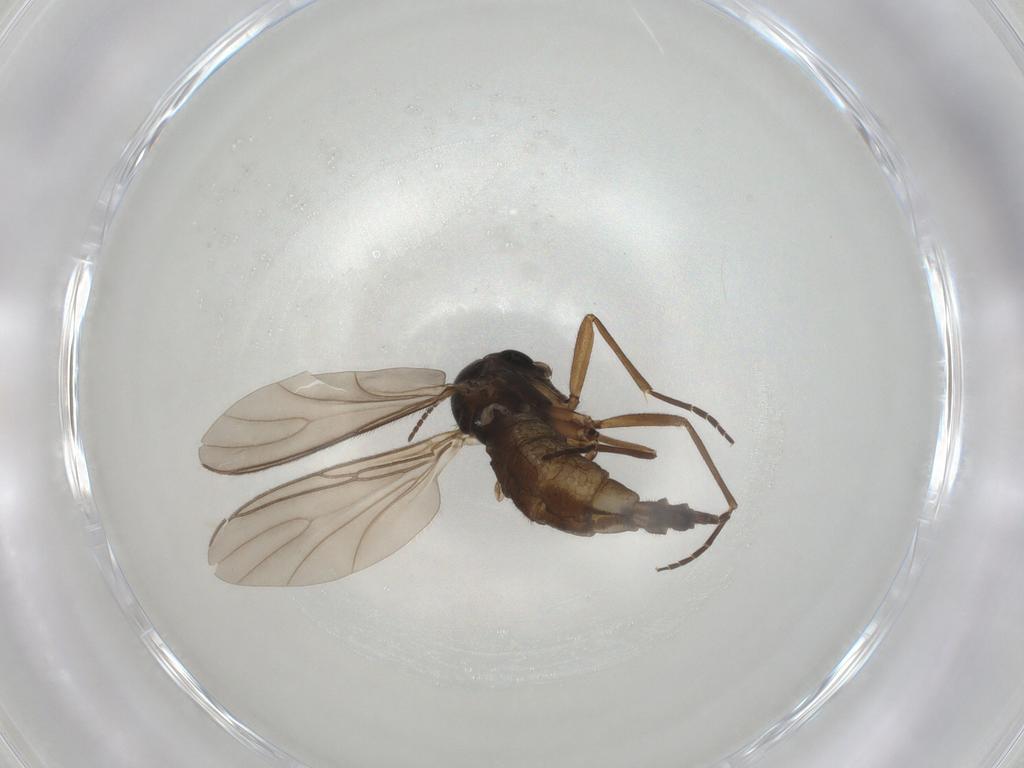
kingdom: Animalia
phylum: Arthropoda
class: Insecta
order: Diptera
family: Sciaridae
